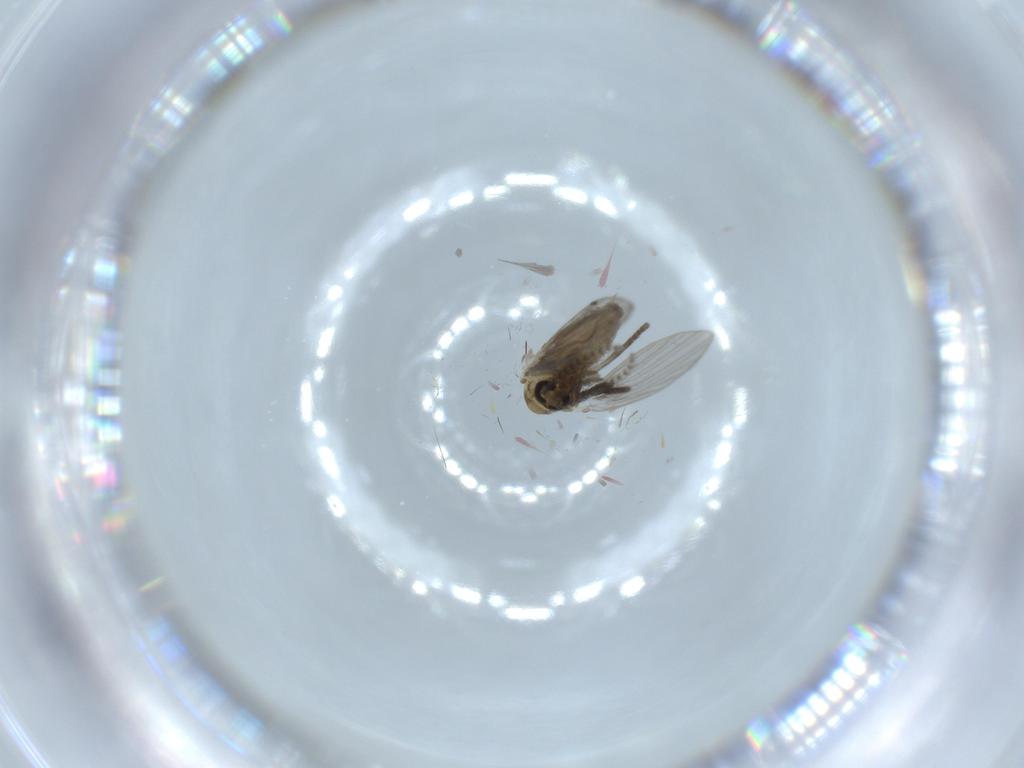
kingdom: Animalia
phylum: Arthropoda
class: Insecta
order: Diptera
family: Psychodidae
